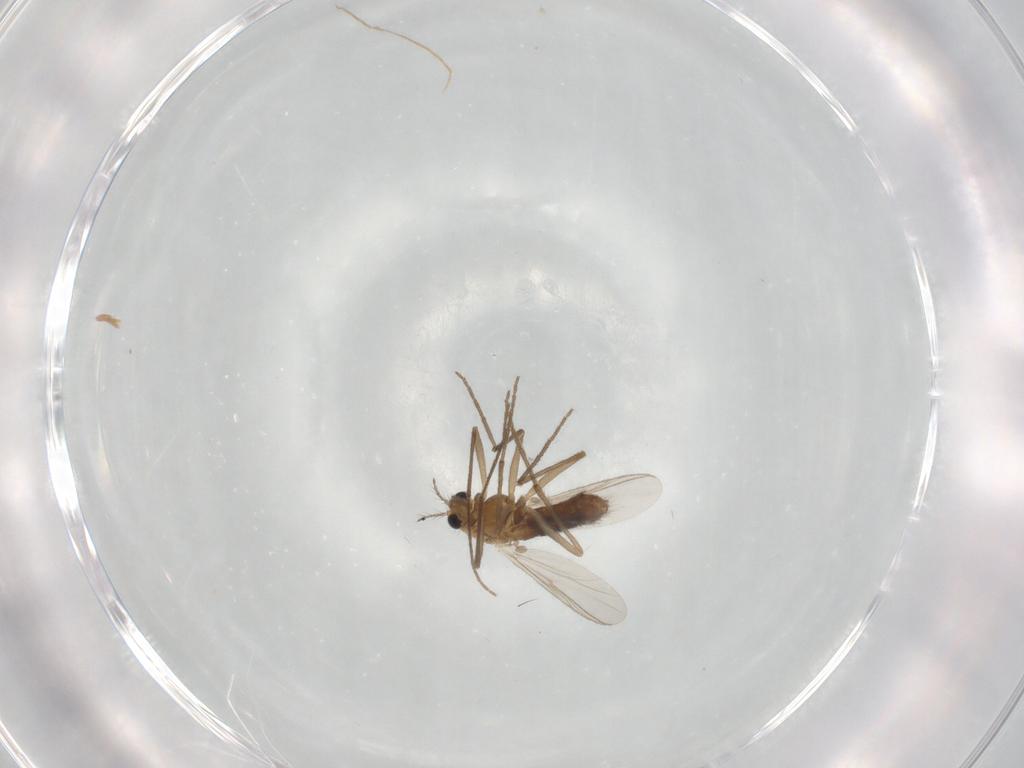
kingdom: Animalia
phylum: Arthropoda
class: Insecta
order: Diptera
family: Chironomidae
